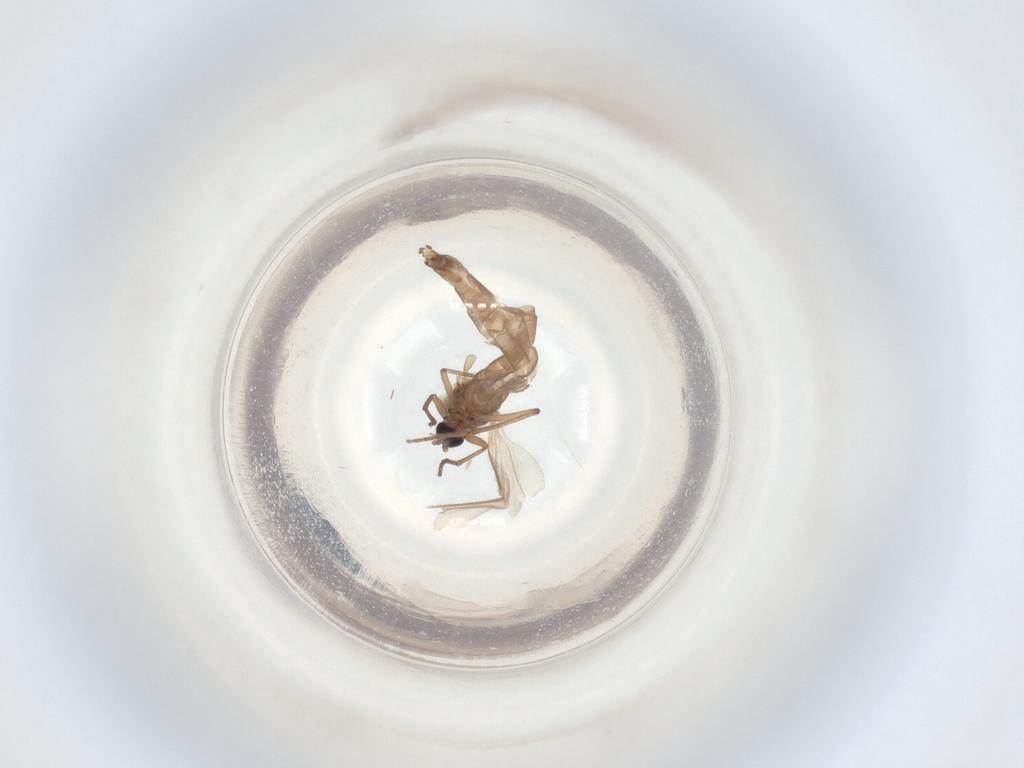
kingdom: Animalia
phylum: Arthropoda
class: Insecta
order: Diptera
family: Sciaridae
